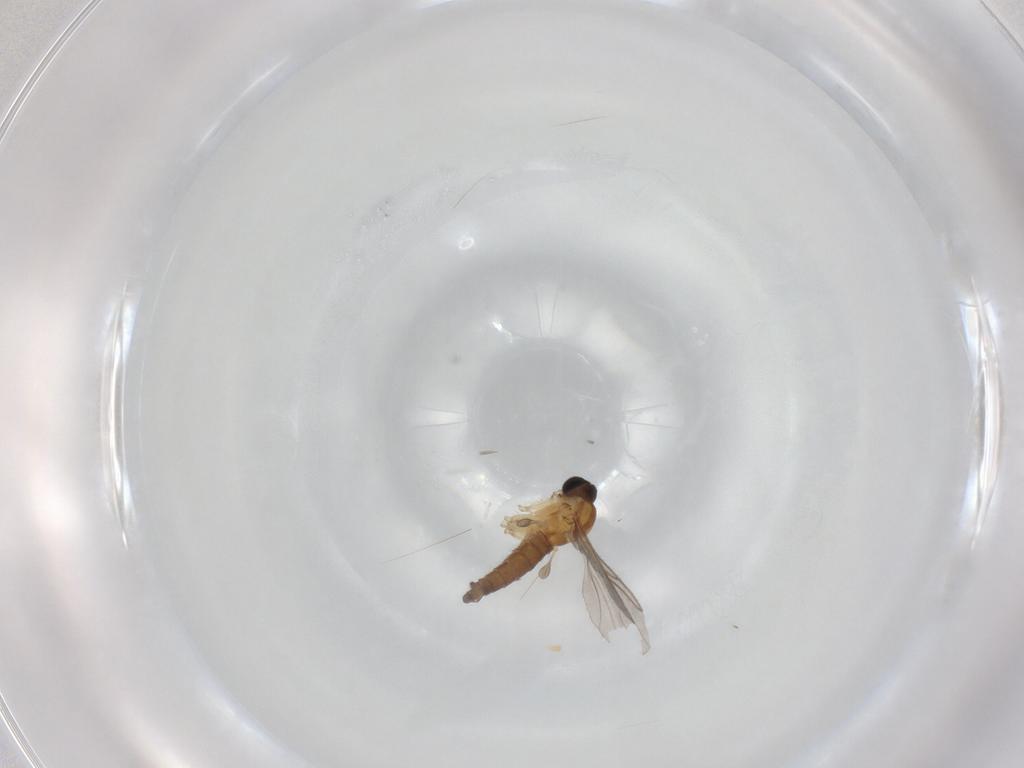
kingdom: Animalia
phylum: Arthropoda
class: Insecta
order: Diptera
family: Sciaridae
